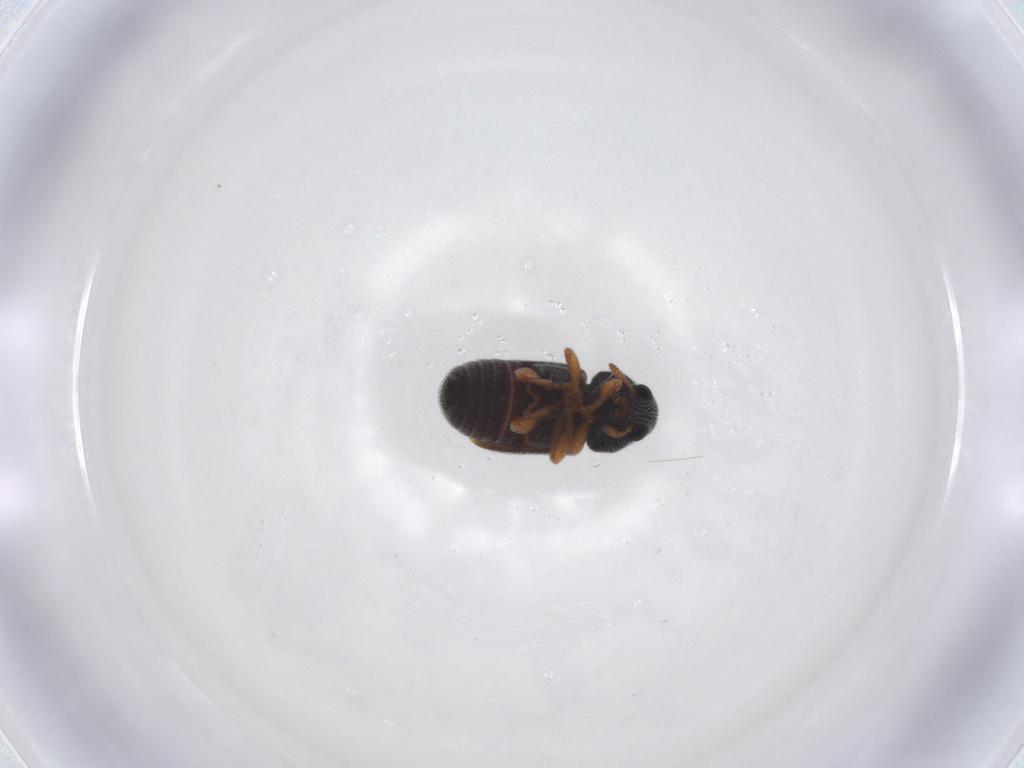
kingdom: Animalia
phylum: Arthropoda
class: Insecta
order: Coleoptera
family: Anthribidae
